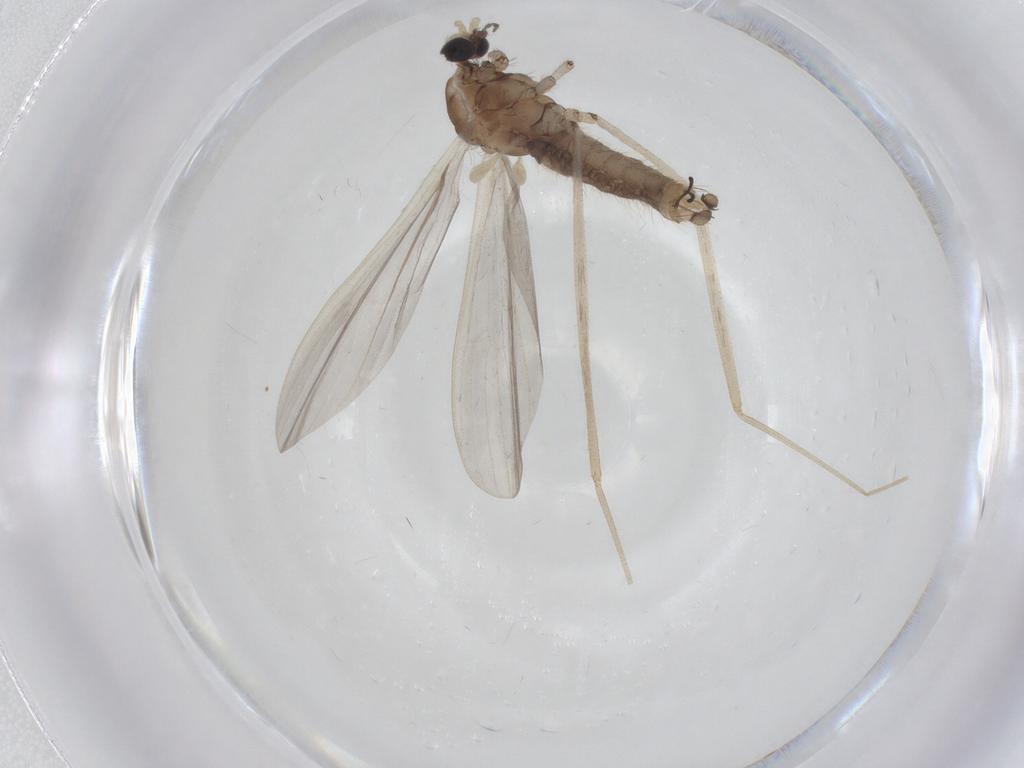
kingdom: Animalia
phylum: Arthropoda
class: Insecta
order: Diptera
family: Limoniidae
